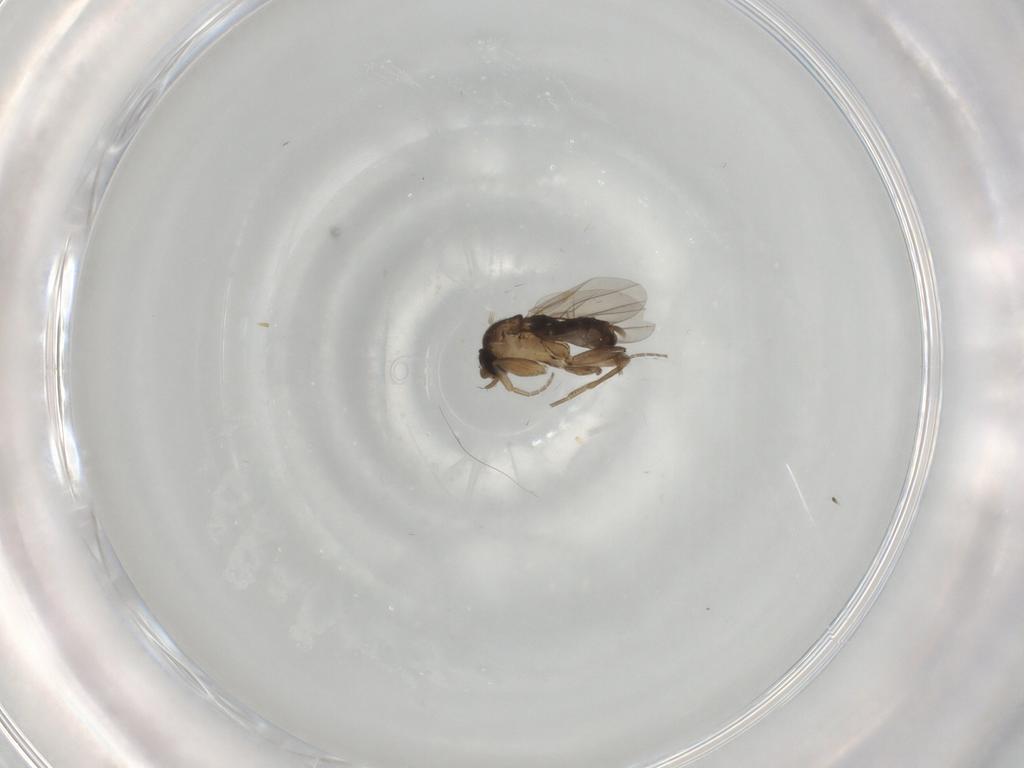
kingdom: Animalia
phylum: Arthropoda
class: Insecta
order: Diptera
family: Phoridae
